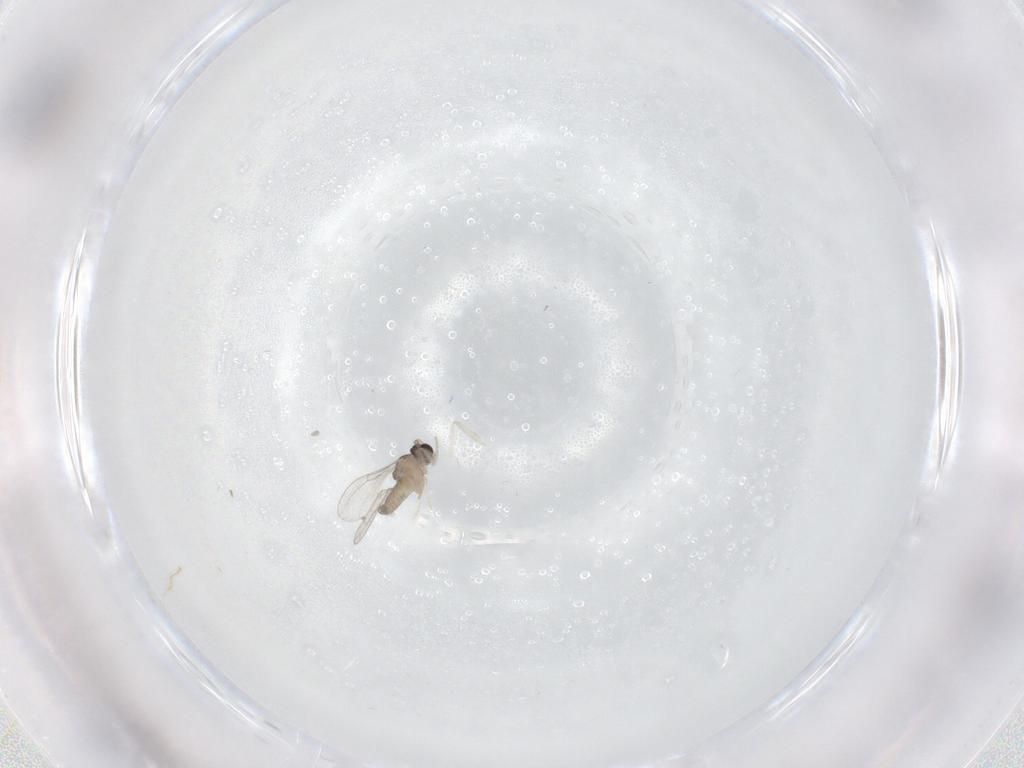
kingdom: Animalia
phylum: Arthropoda
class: Insecta
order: Diptera
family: Cecidomyiidae
